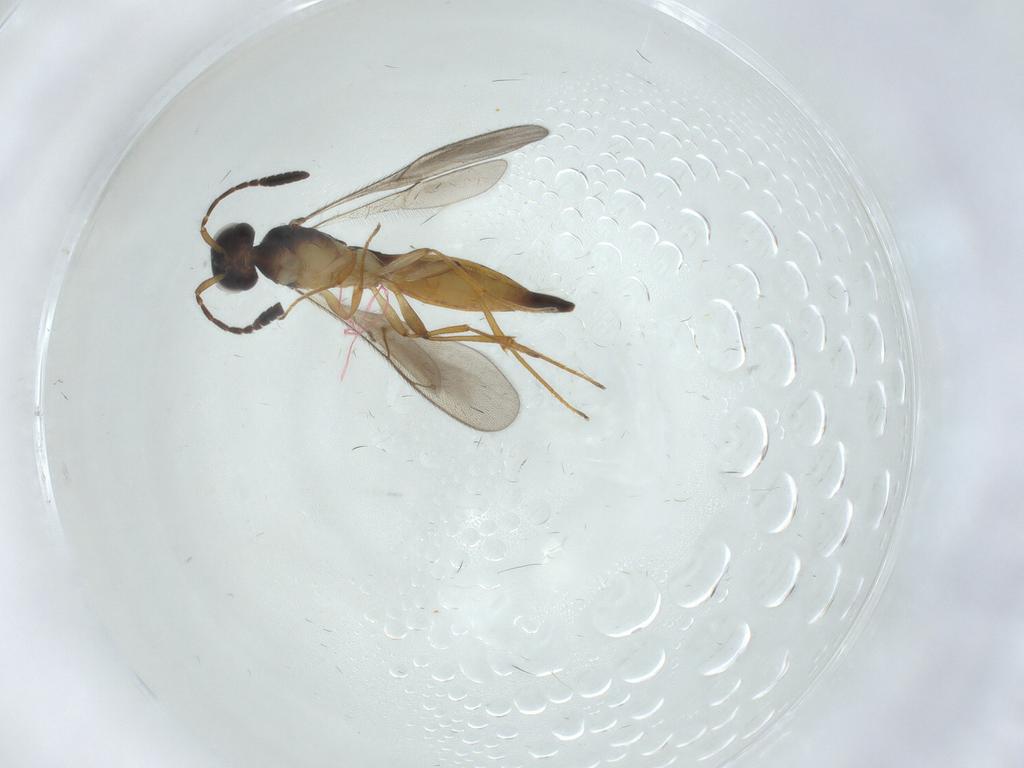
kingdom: Animalia
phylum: Arthropoda
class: Insecta
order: Hymenoptera
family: Scelionidae
